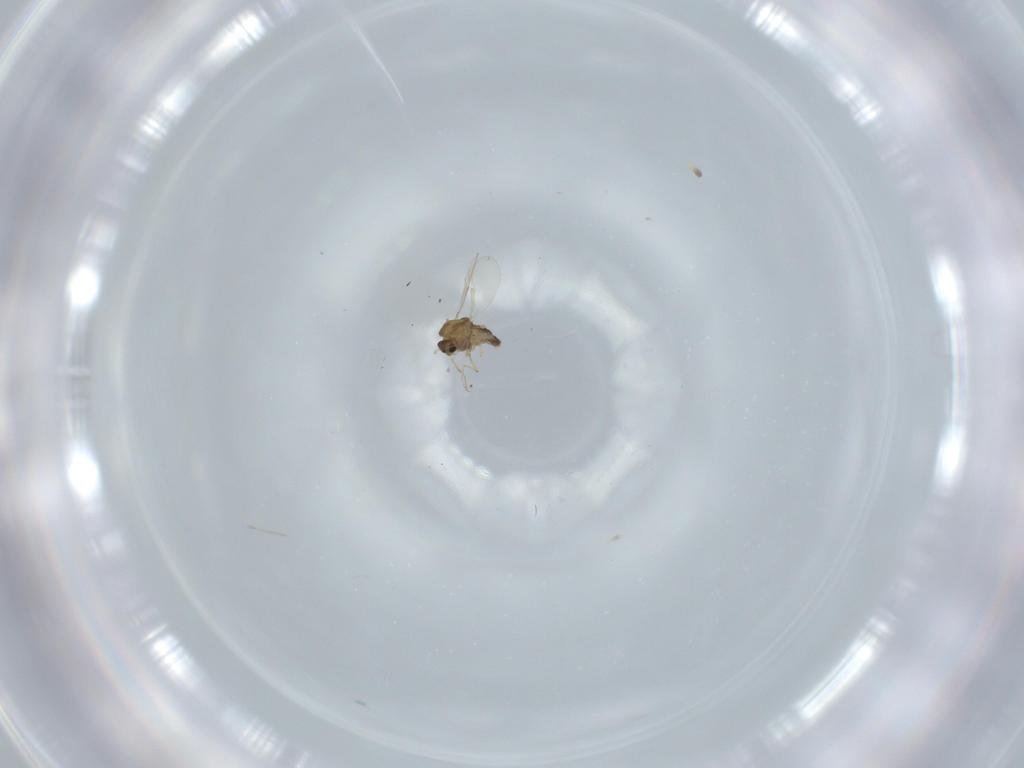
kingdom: Animalia
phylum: Arthropoda
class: Insecta
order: Diptera
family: Chironomidae
